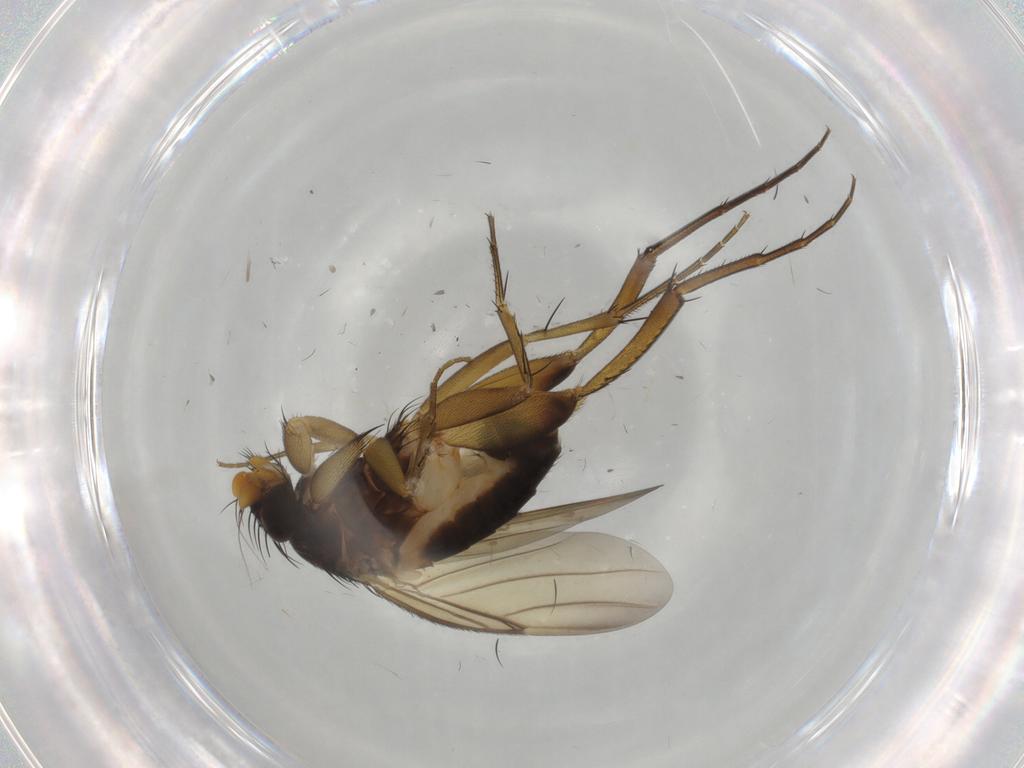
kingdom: Animalia
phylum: Arthropoda
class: Insecta
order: Diptera
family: Phoridae
